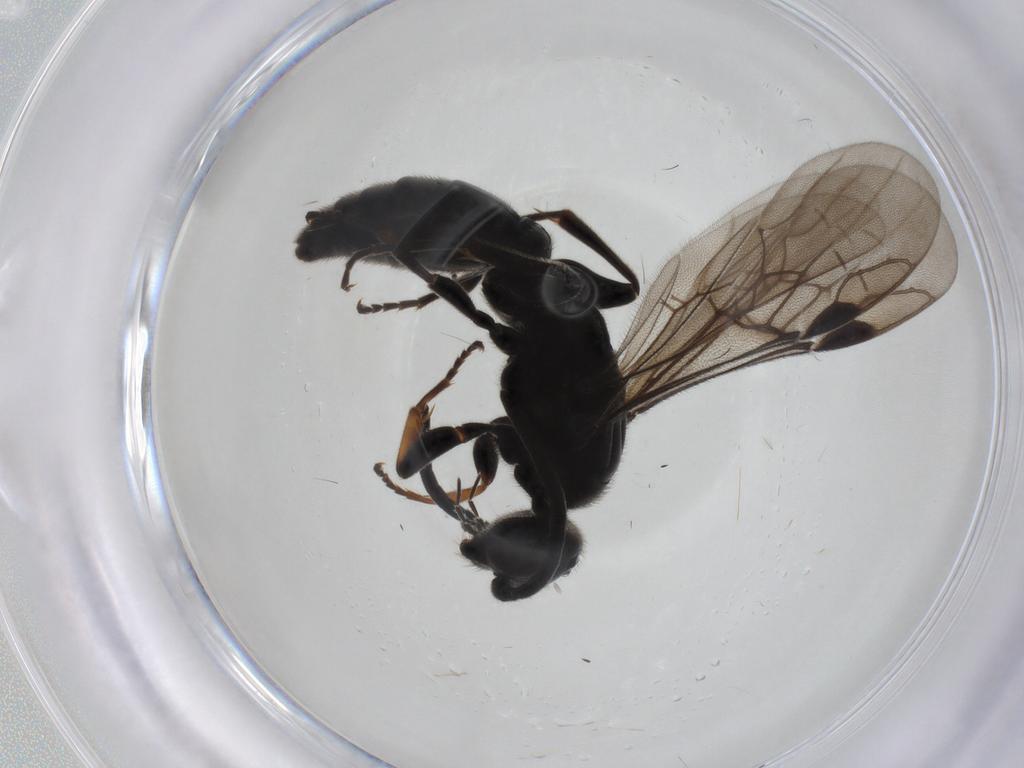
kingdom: Animalia
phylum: Arthropoda
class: Insecta
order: Hymenoptera
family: Sierolomorphidae
